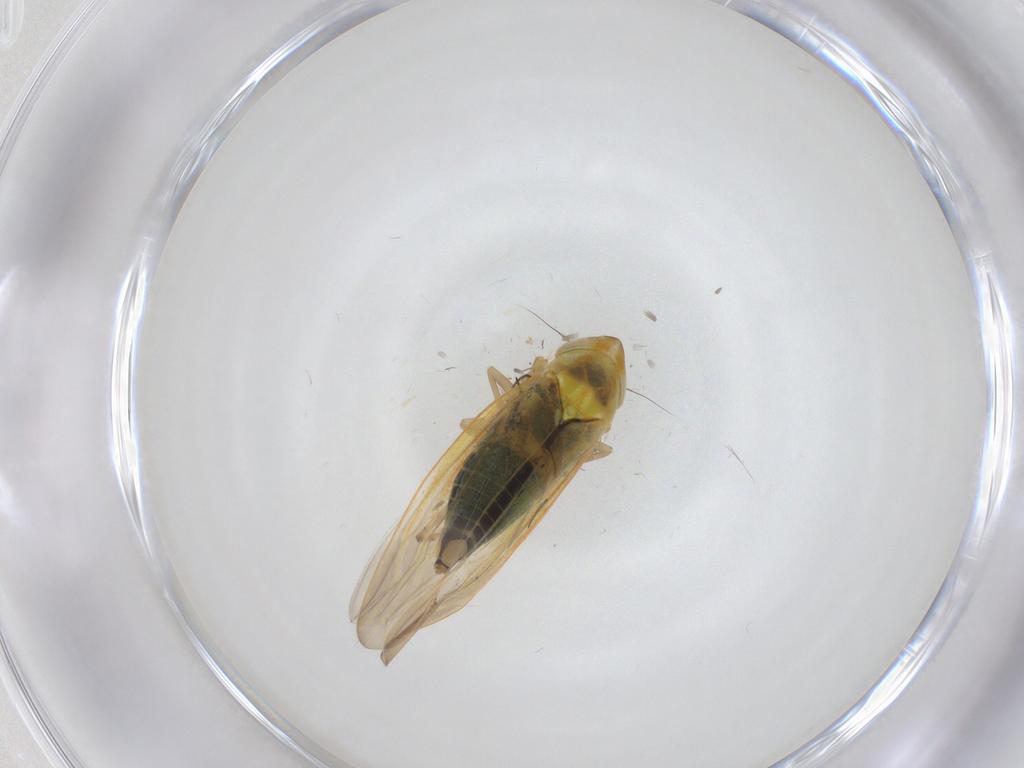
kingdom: Animalia
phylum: Arthropoda
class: Insecta
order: Hemiptera
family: Cicadellidae
